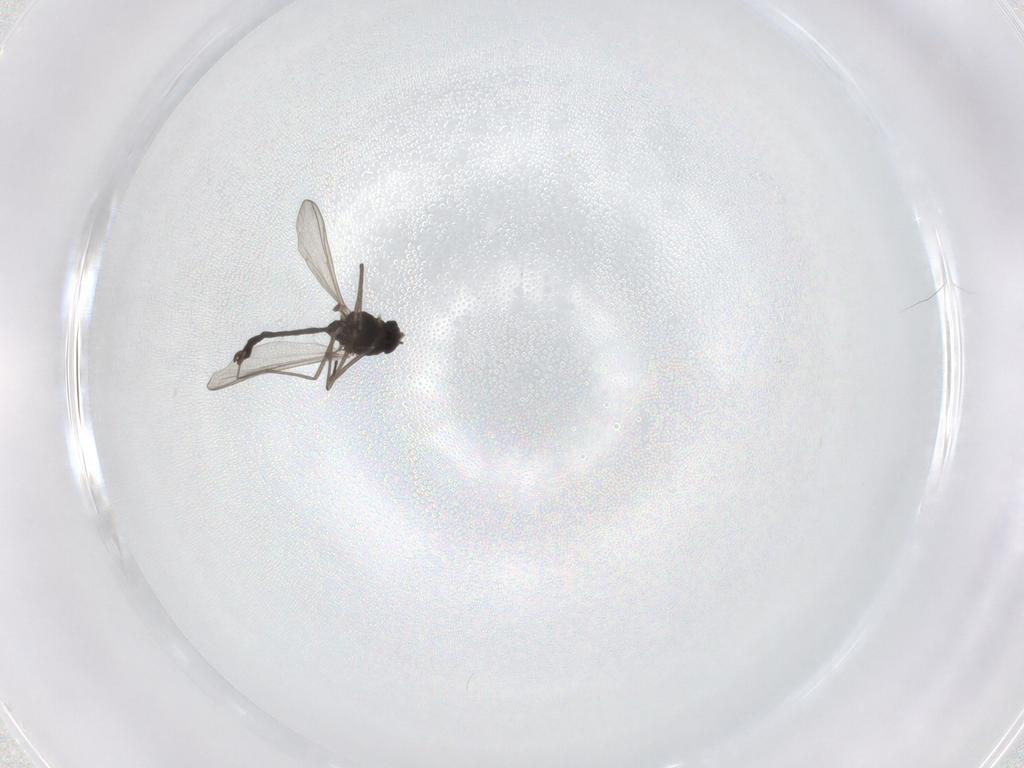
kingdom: Animalia
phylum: Arthropoda
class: Insecta
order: Diptera
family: Chironomidae
